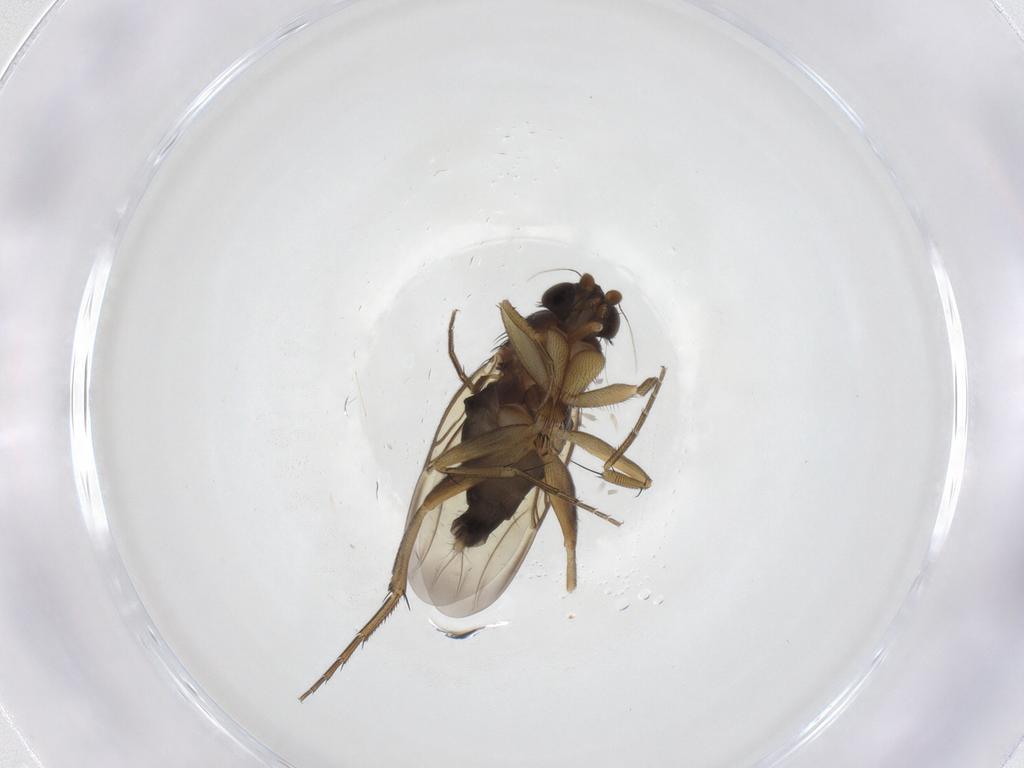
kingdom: Animalia
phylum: Arthropoda
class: Insecta
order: Diptera
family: Phoridae
